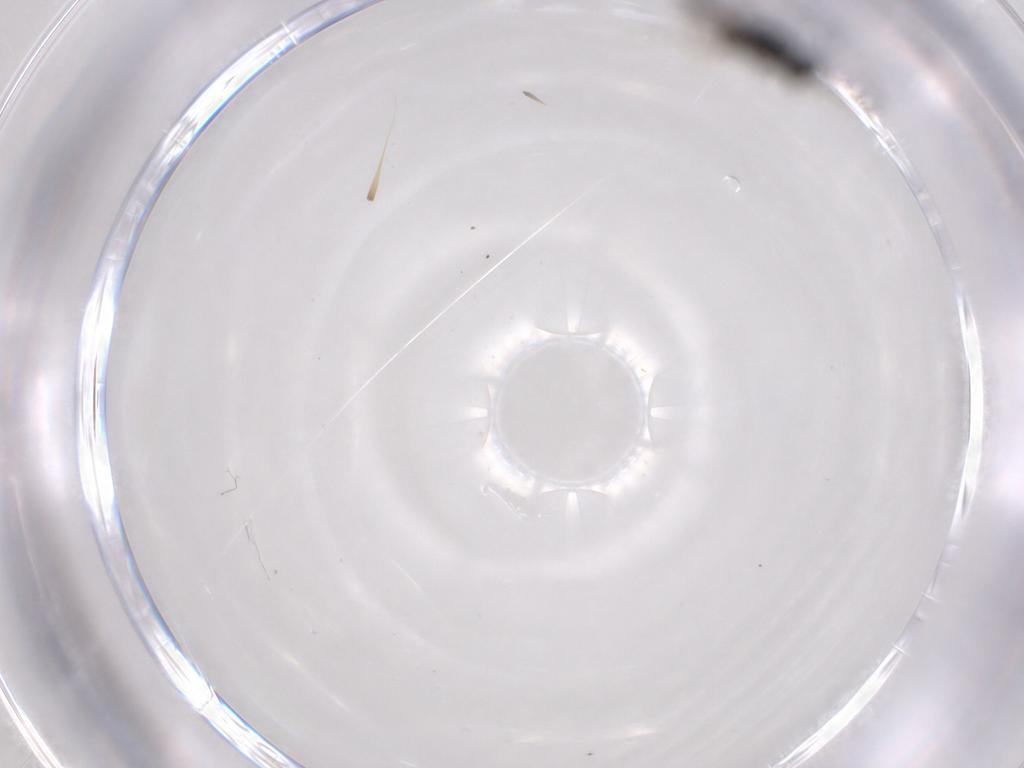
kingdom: Animalia
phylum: Arthropoda
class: Insecta
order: Hymenoptera
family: Mymaridae
